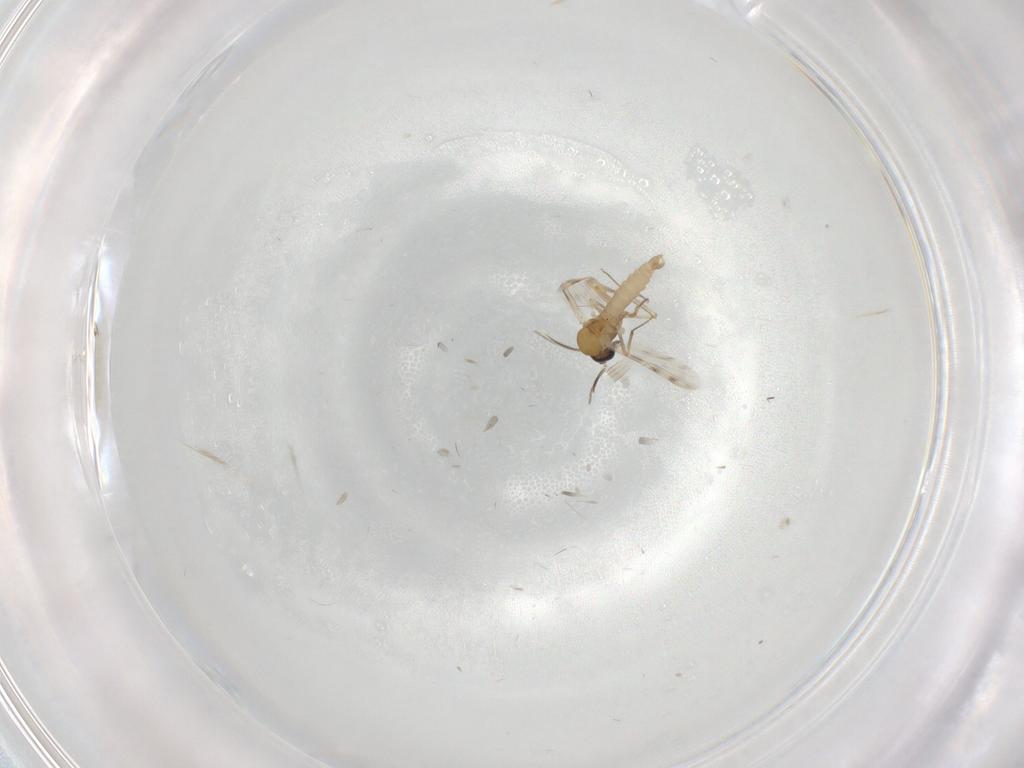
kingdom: Animalia
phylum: Arthropoda
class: Insecta
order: Diptera
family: Ceratopogonidae
